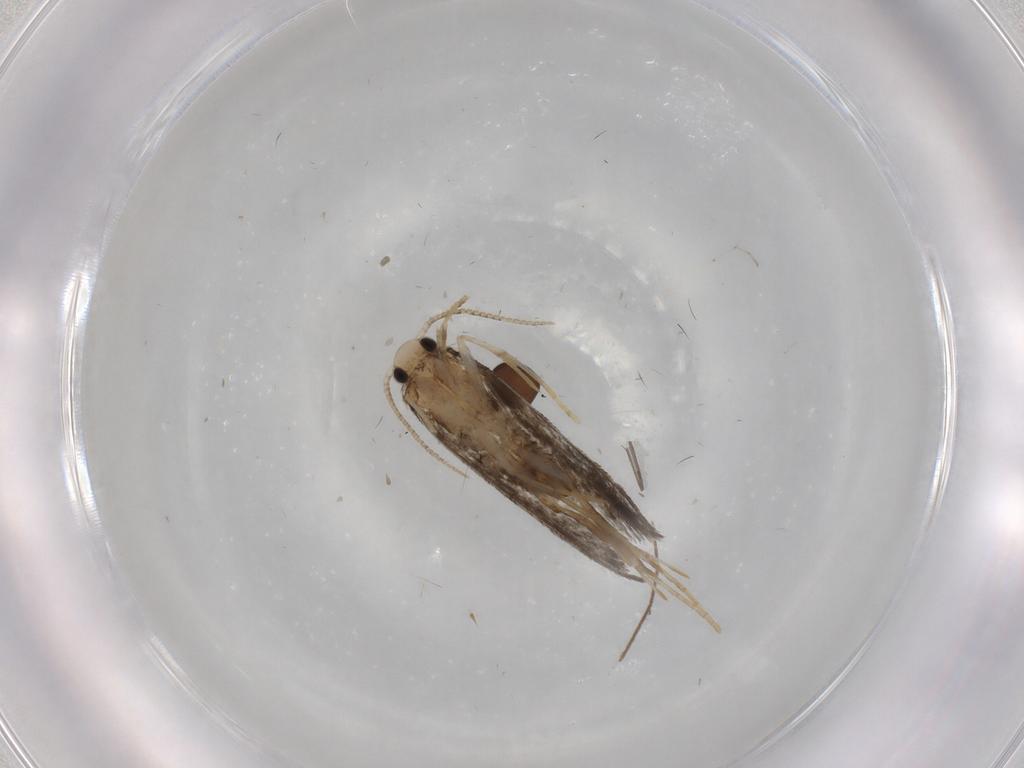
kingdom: Animalia
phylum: Arthropoda
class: Insecta
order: Lepidoptera
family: Psychidae
